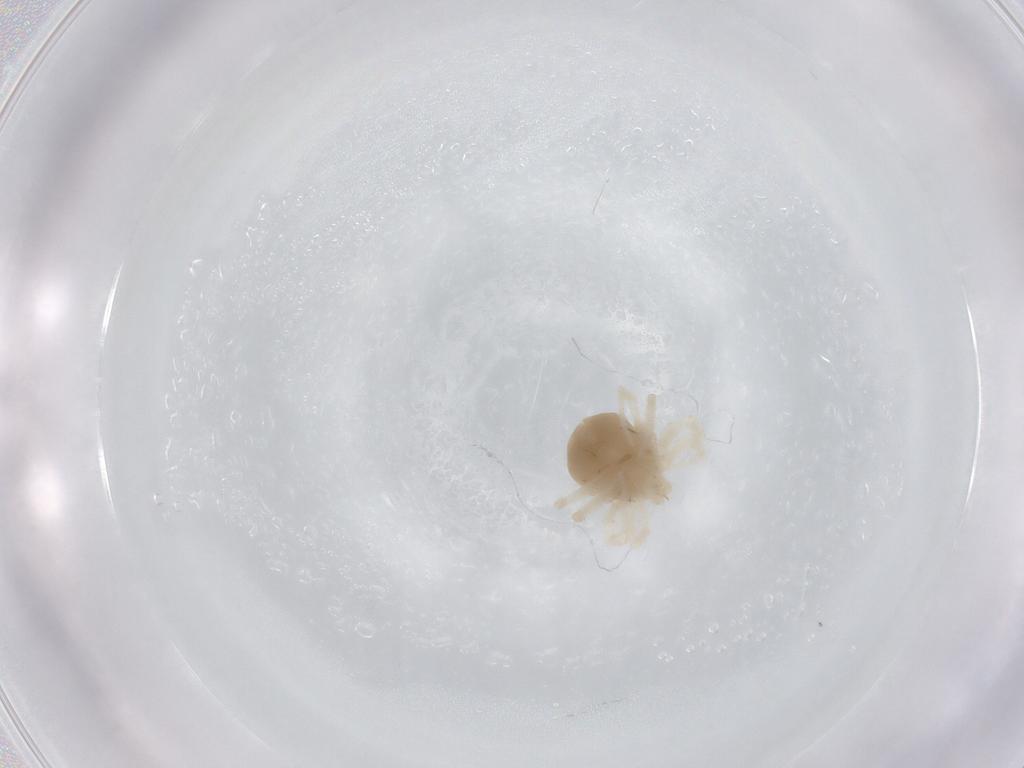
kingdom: Animalia
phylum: Arthropoda
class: Arachnida
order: Trombidiformes
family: Anystidae
